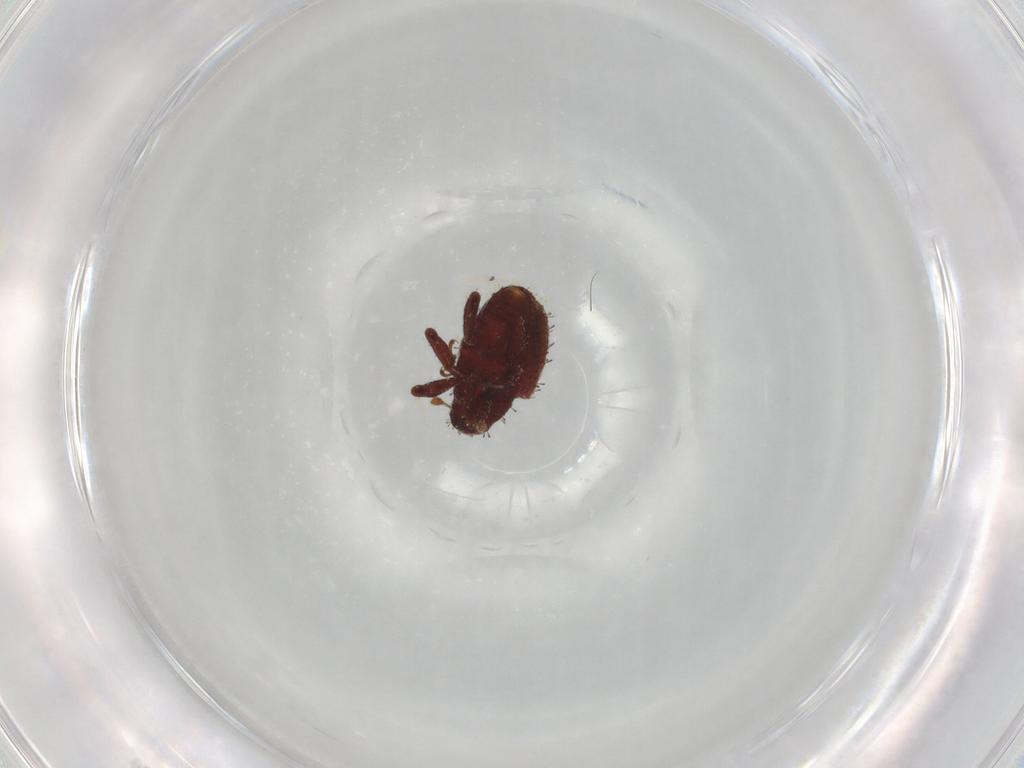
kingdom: Animalia
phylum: Arthropoda
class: Insecta
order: Coleoptera
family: Curculionidae
